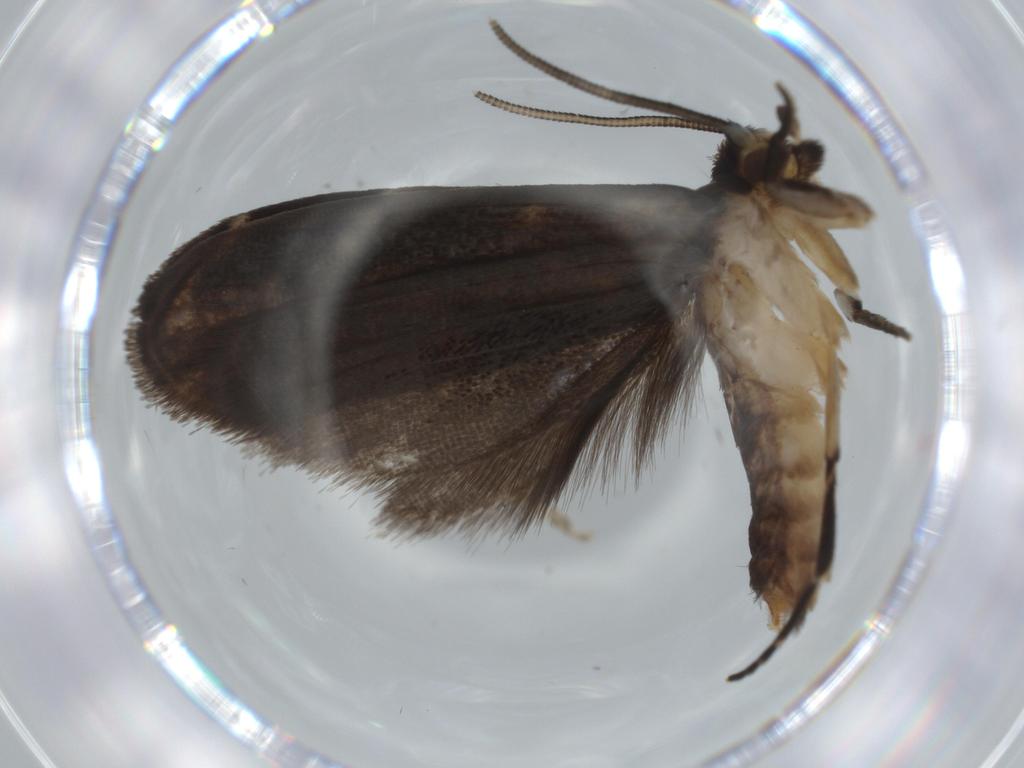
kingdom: Animalia
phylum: Arthropoda
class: Insecta
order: Lepidoptera
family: Dryadaulidae
